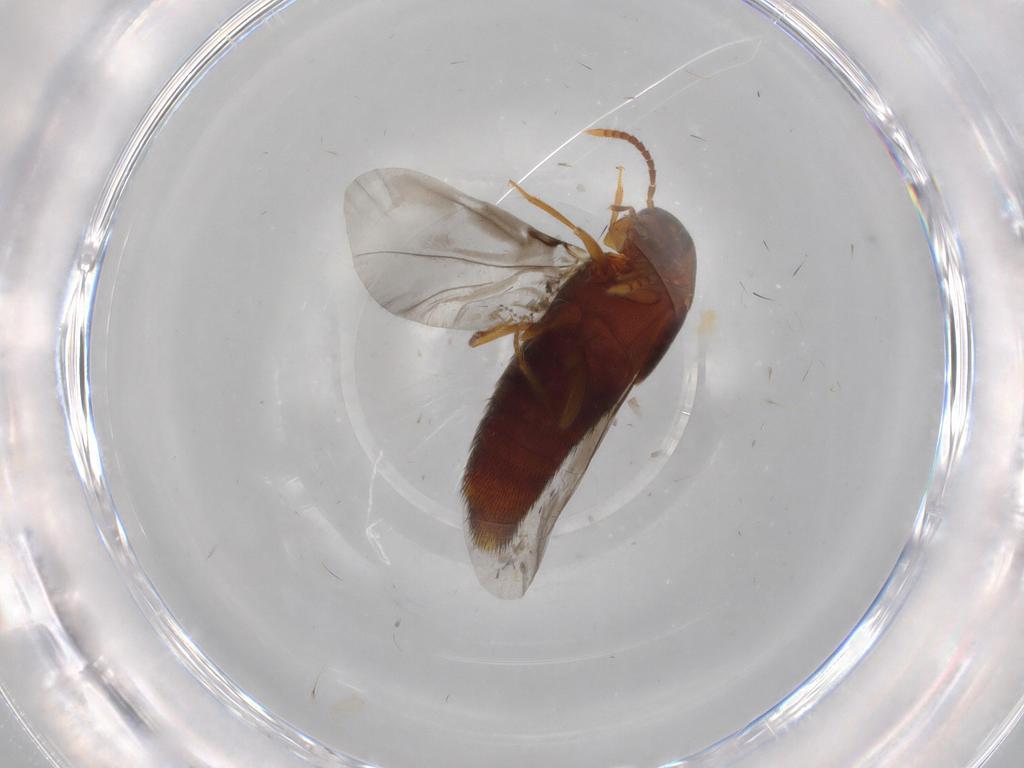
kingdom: Animalia
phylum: Arthropoda
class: Insecta
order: Coleoptera
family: Staphylinidae
